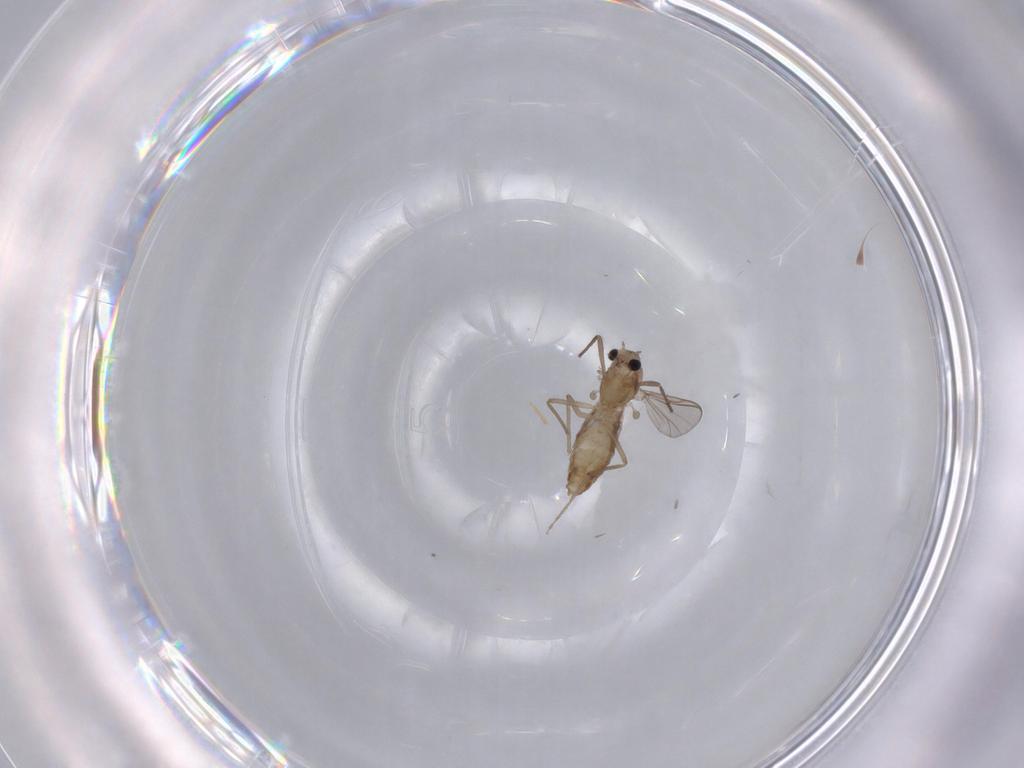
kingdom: Animalia
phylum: Arthropoda
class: Insecta
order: Diptera
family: Chironomidae
